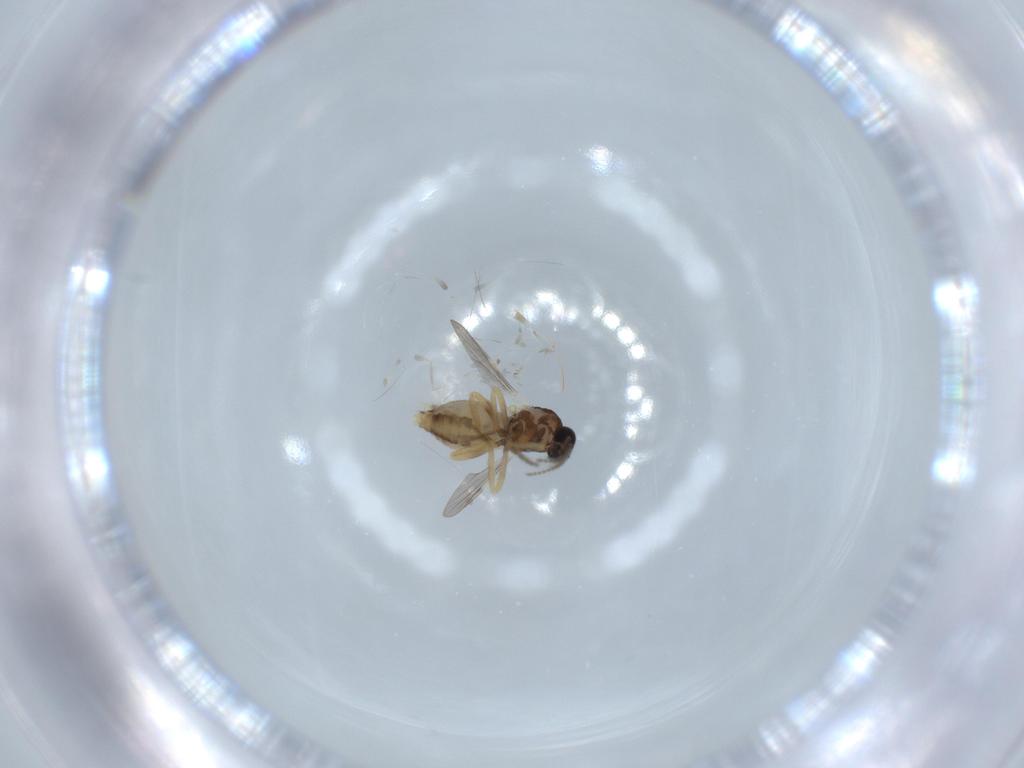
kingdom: Animalia
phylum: Arthropoda
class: Insecta
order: Diptera
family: Ceratopogonidae
